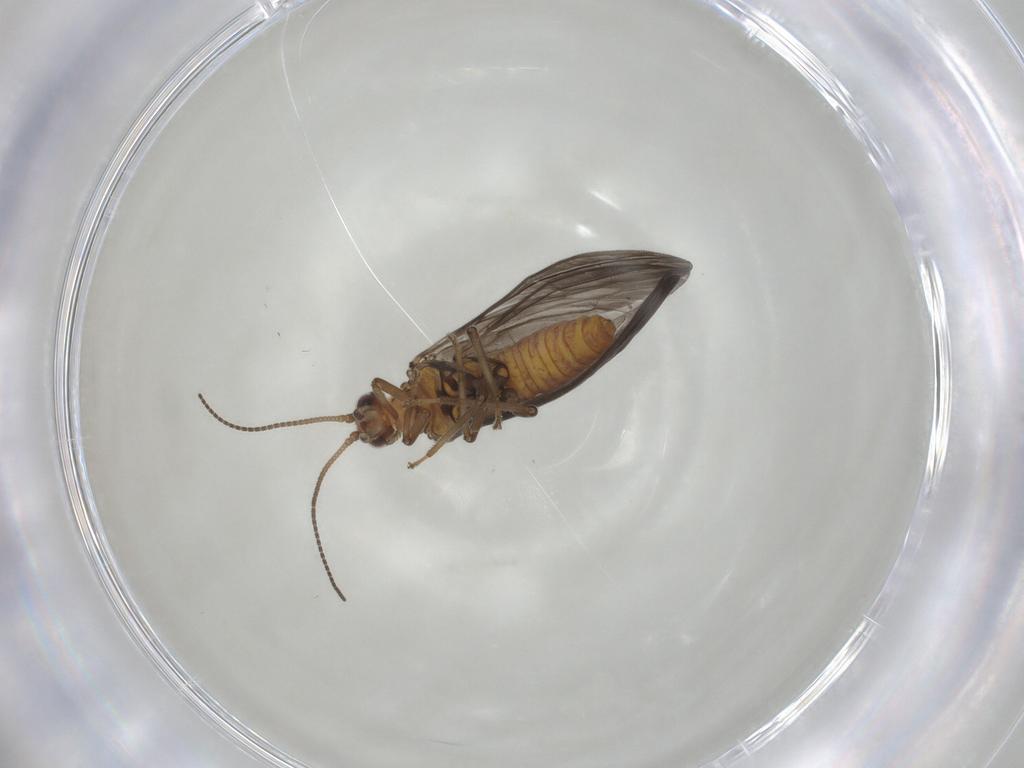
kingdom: Animalia
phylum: Arthropoda
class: Insecta
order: Neuroptera
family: Coniopterygidae
